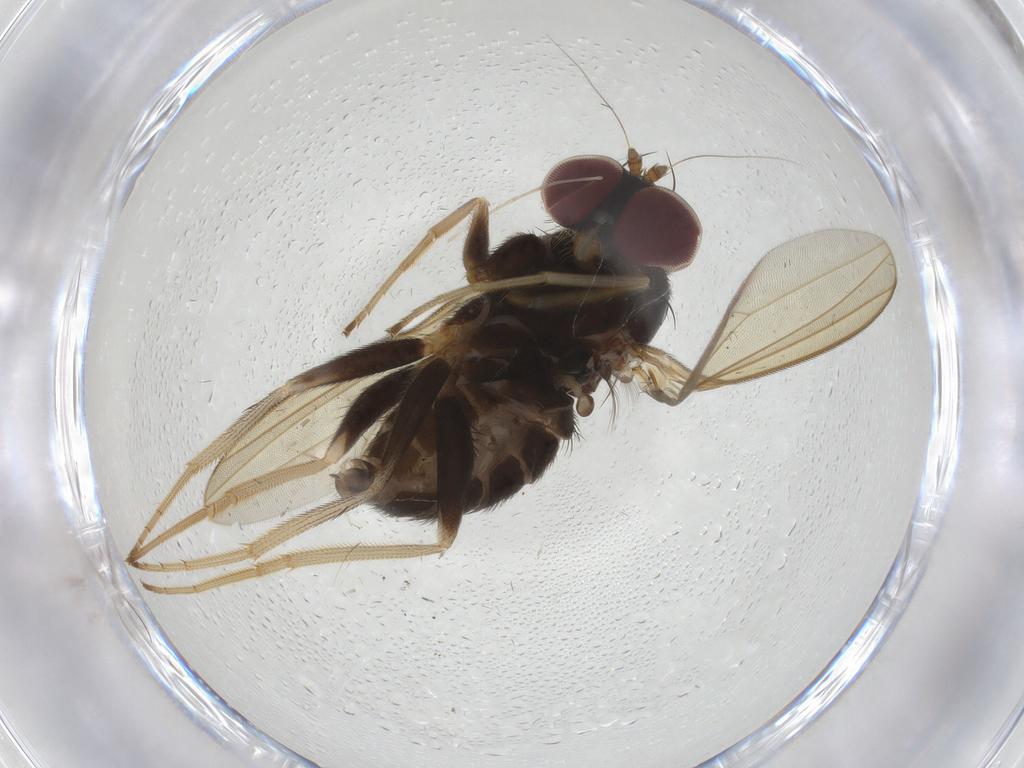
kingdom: Animalia
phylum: Arthropoda
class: Insecta
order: Diptera
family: Dolichopodidae
